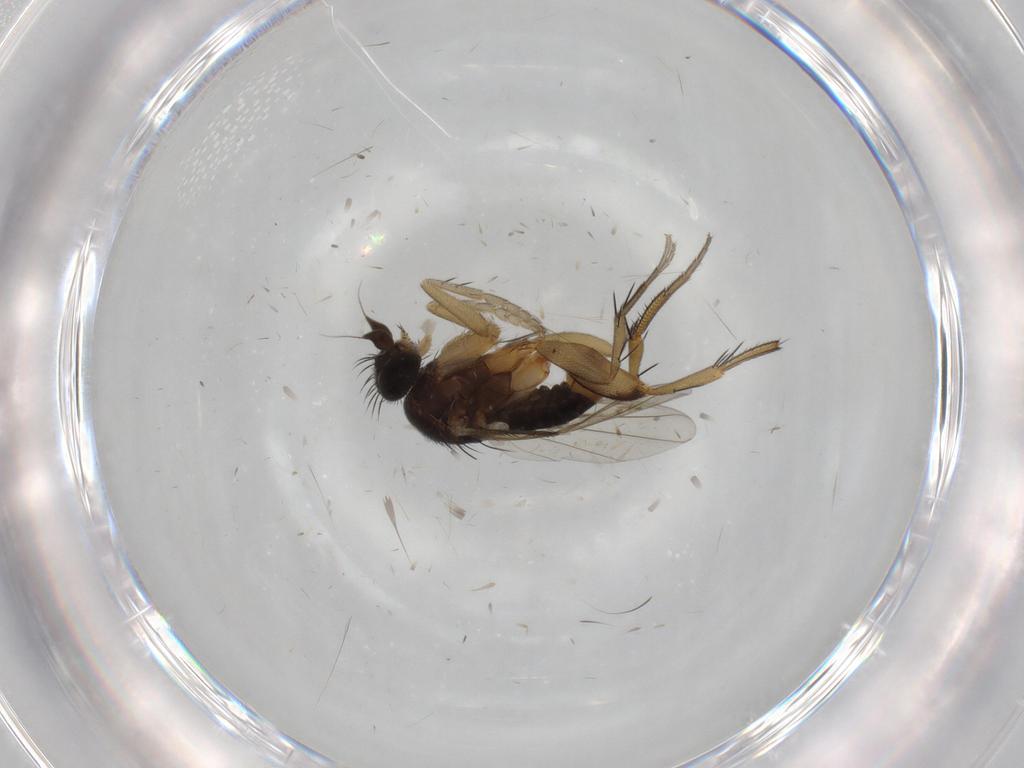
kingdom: Animalia
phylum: Arthropoda
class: Insecta
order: Diptera
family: Phoridae
